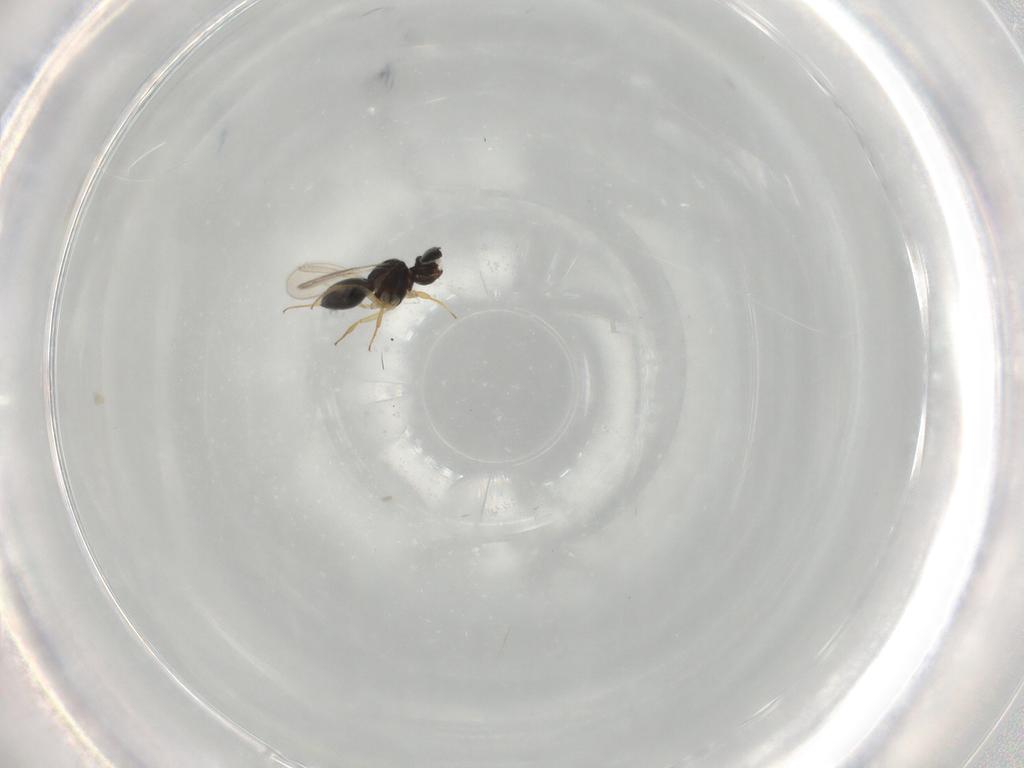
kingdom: Animalia
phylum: Arthropoda
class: Insecta
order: Hymenoptera
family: Scelionidae
